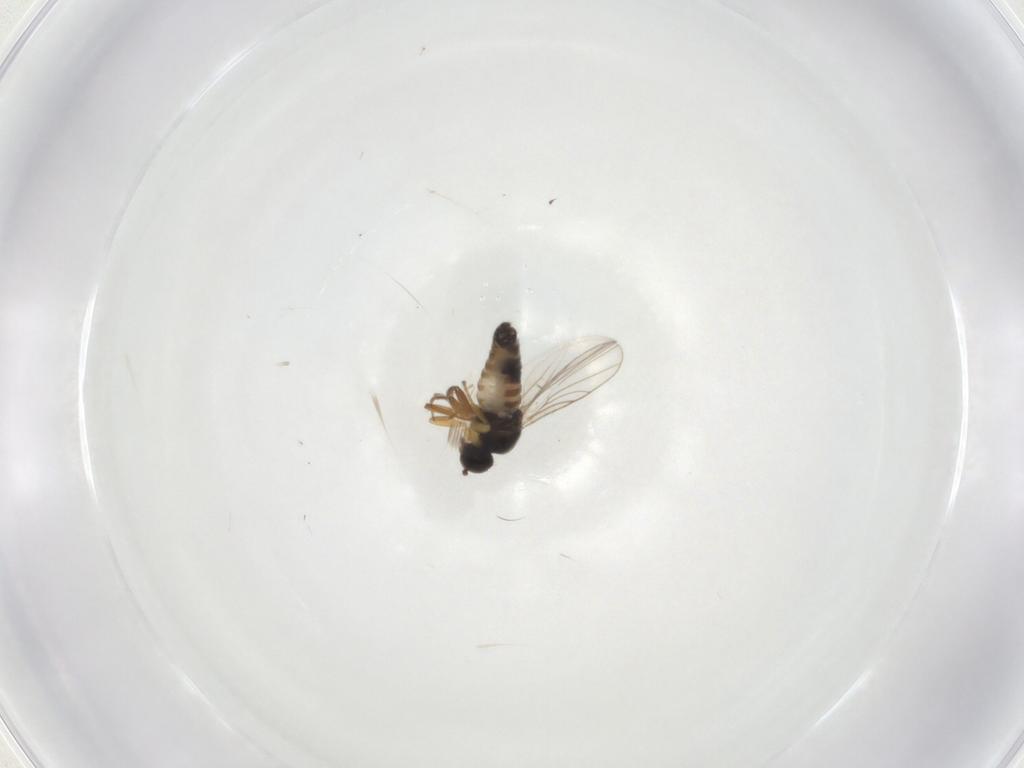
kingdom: Animalia
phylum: Arthropoda
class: Insecta
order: Diptera
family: Hybotidae
